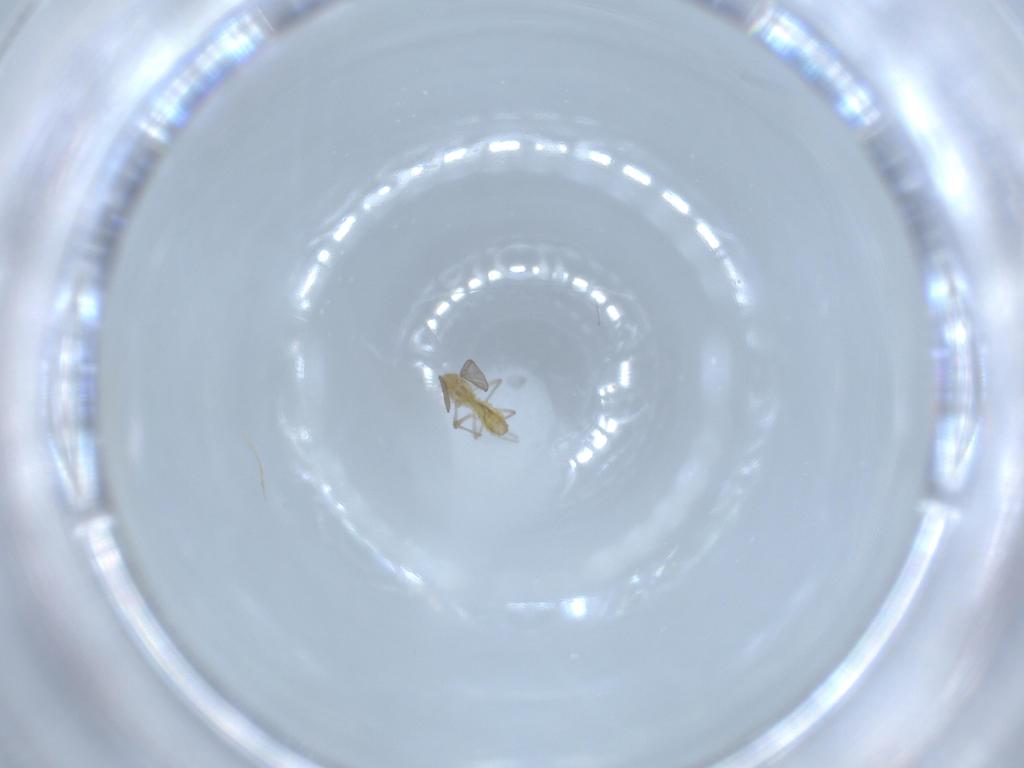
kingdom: Animalia
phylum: Arthropoda
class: Insecta
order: Diptera
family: Chironomidae
